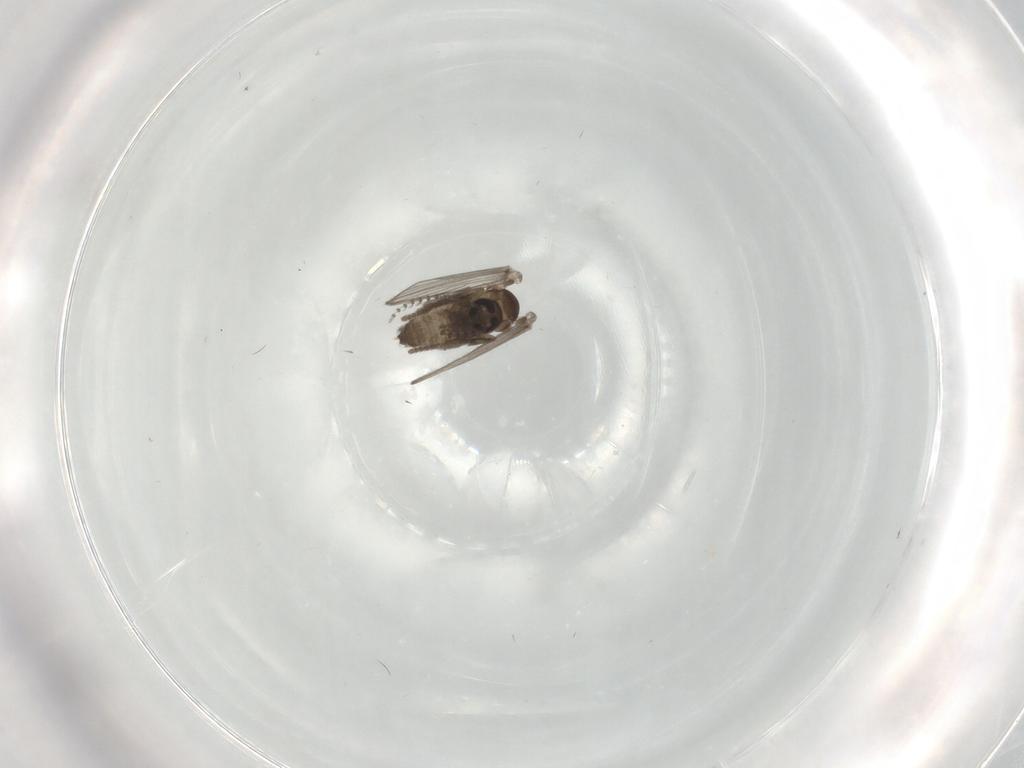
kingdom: Animalia
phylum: Arthropoda
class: Insecta
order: Diptera
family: Psychodidae
